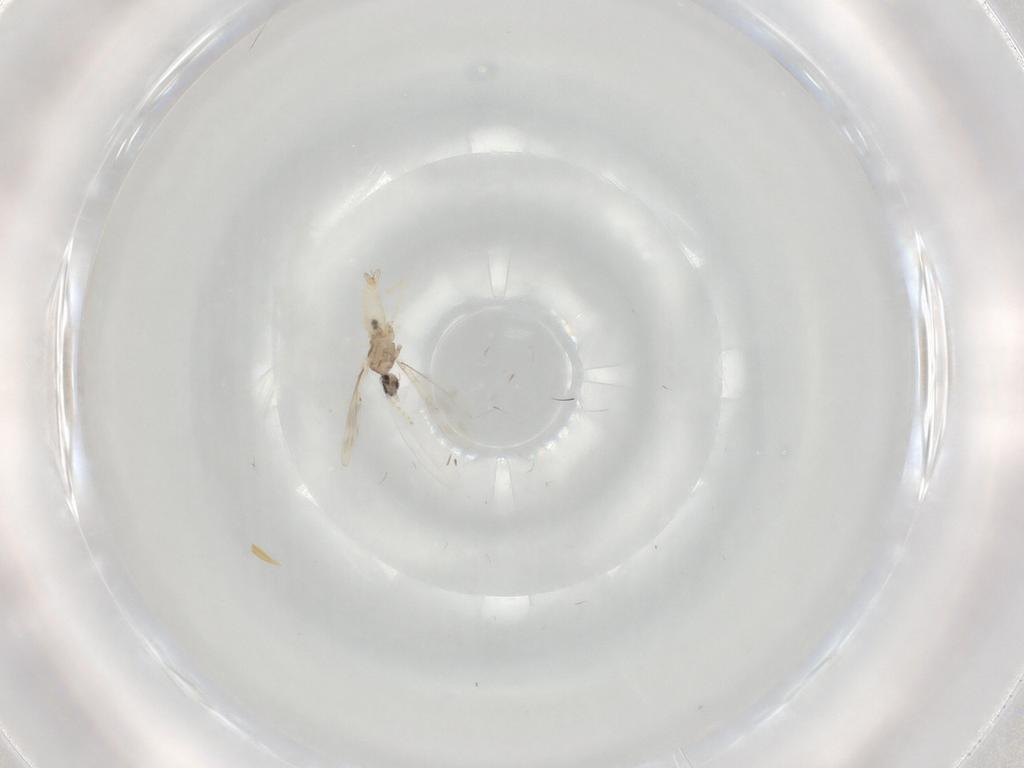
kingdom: Animalia
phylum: Arthropoda
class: Insecta
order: Diptera
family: Cecidomyiidae
